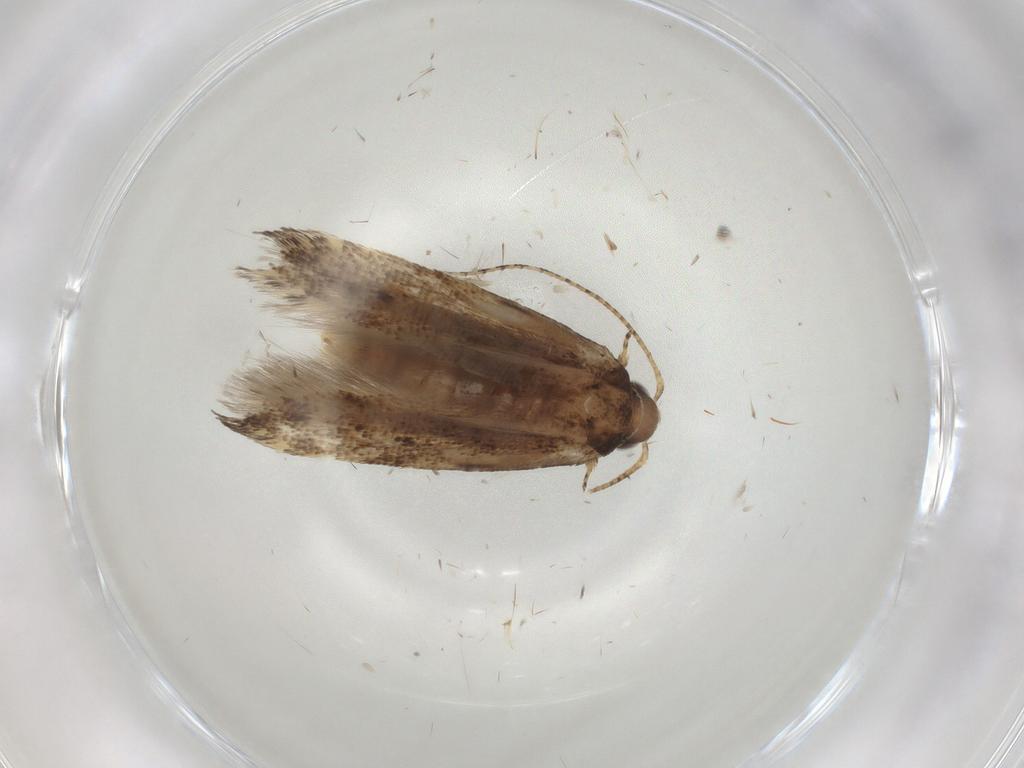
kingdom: Animalia
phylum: Arthropoda
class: Insecta
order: Lepidoptera
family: Gelechiidae
